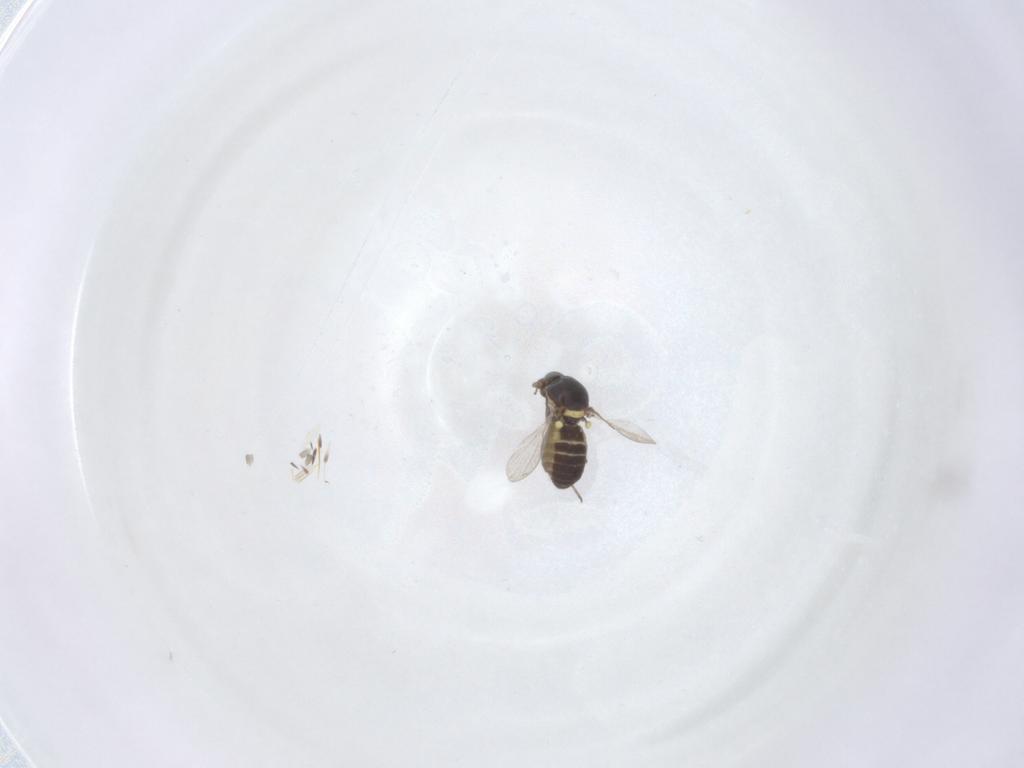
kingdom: Animalia
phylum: Arthropoda
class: Insecta
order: Diptera
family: Ceratopogonidae
